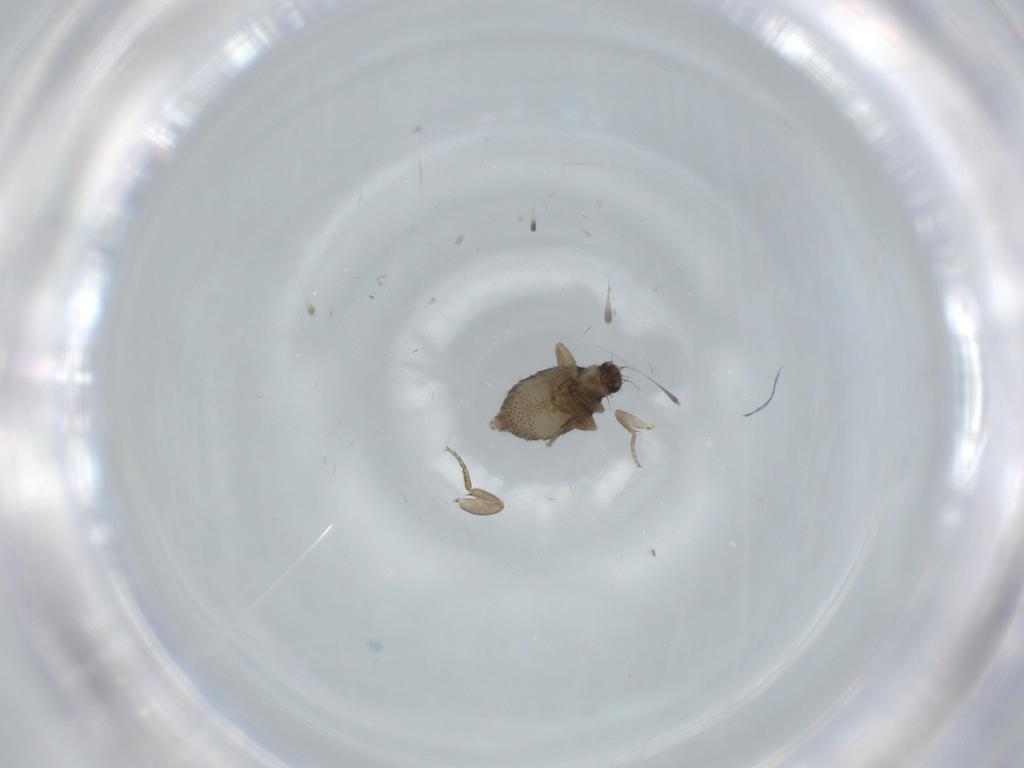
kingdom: Animalia
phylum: Arthropoda
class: Insecta
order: Diptera
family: Phoridae
